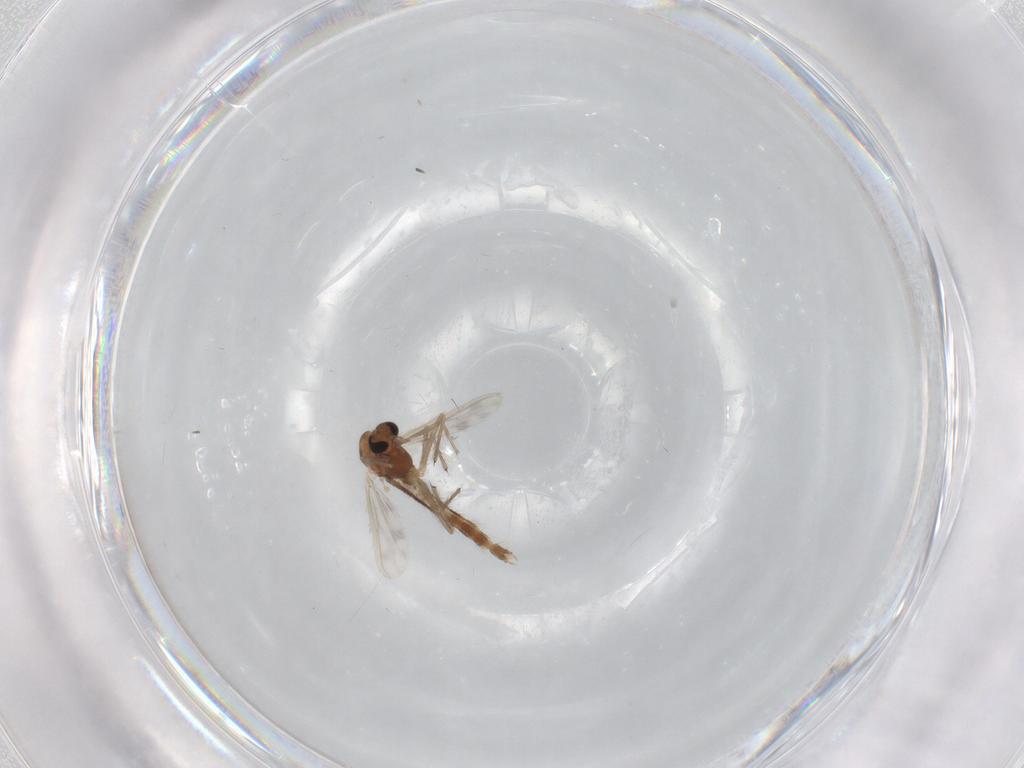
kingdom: Animalia
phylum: Arthropoda
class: Insecta
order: Diptera
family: Chironomidae
